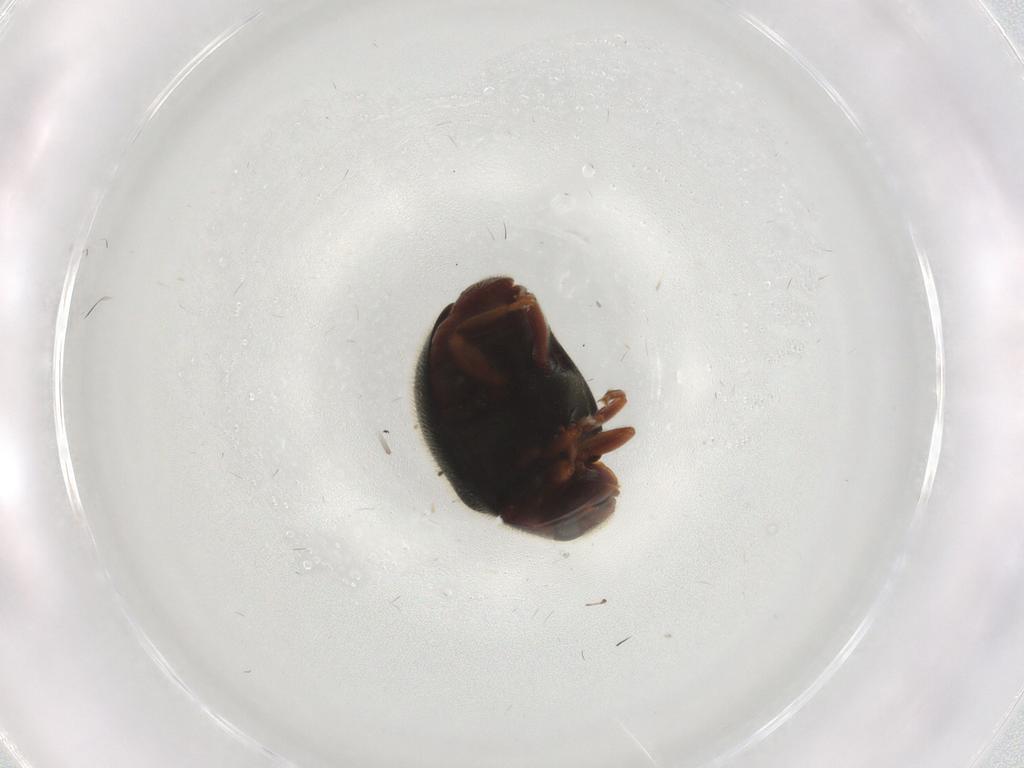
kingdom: Animalia
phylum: Arthropoda
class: Insecta
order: Coleoptera
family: Coccinellidae
